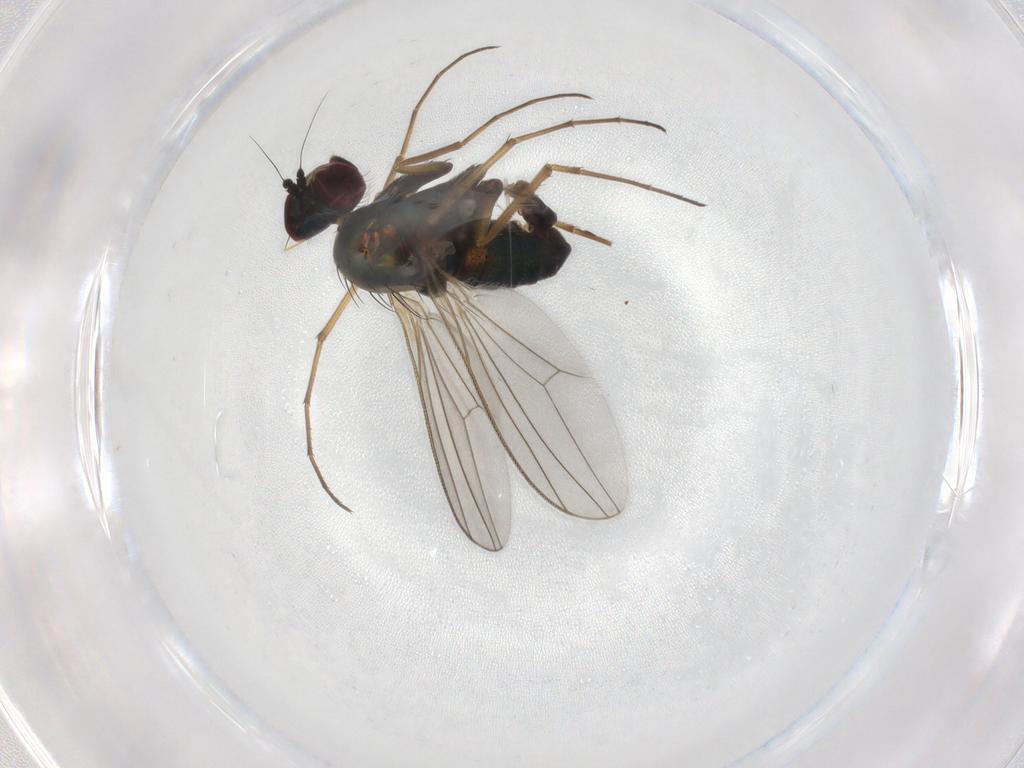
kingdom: Animalia
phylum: Arthropoda
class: Insecta
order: Diptera
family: Dolichopodidae
